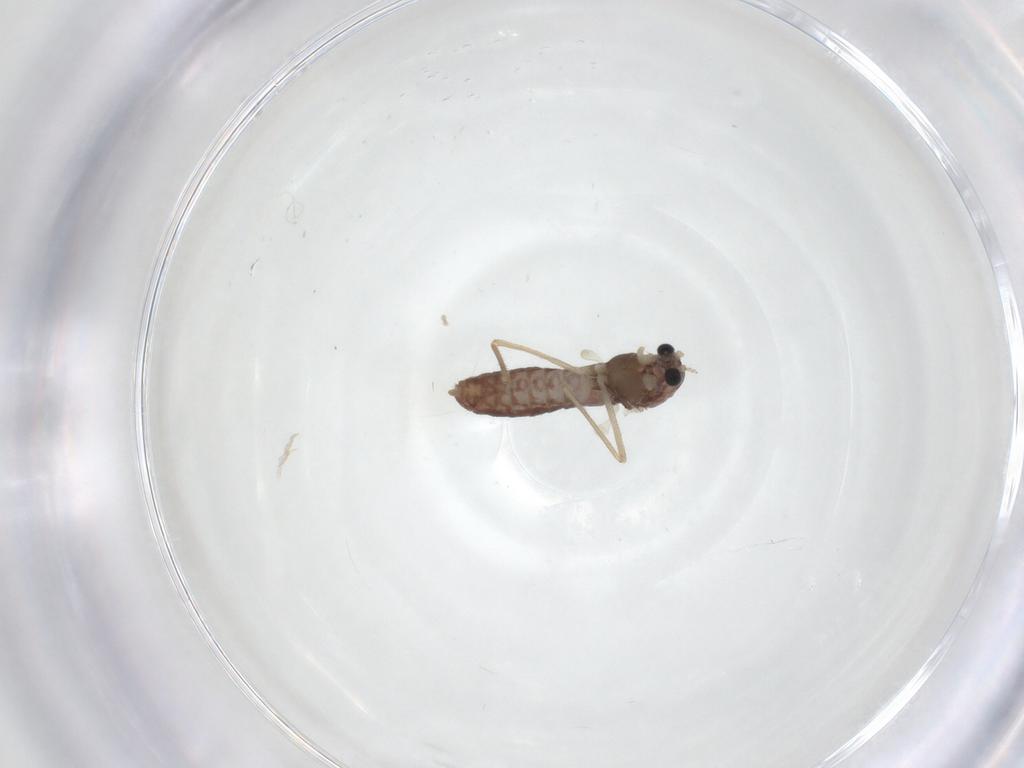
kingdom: Animalia
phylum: Arthropoda
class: Insecta
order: Diptera
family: Chironomidae
